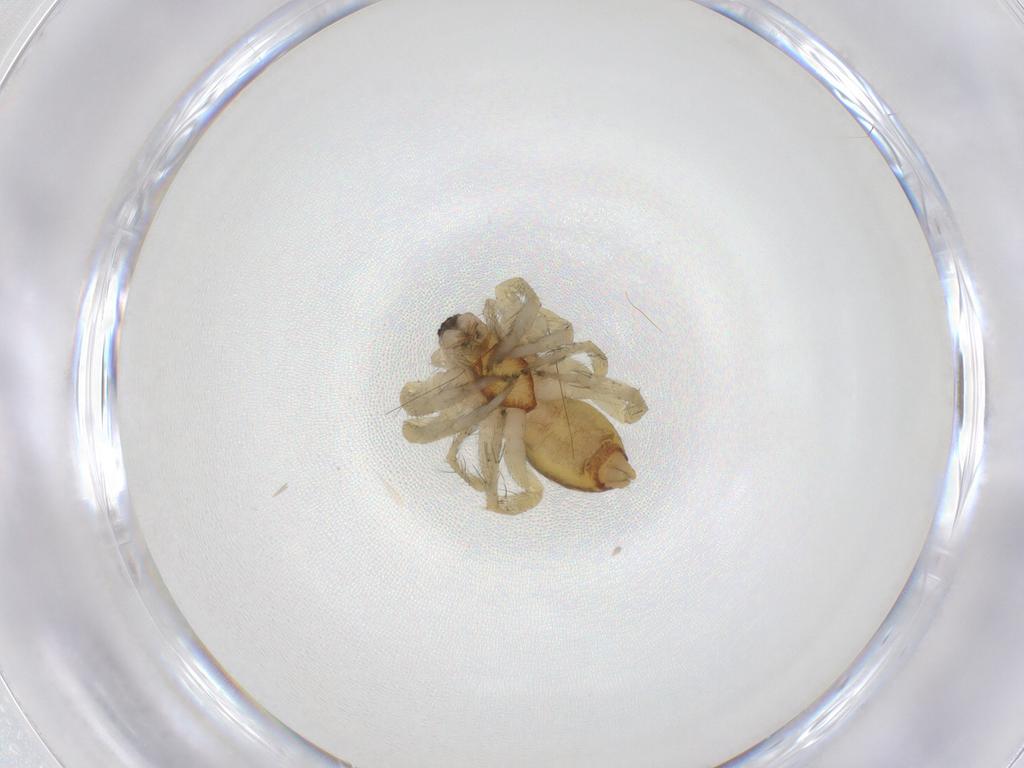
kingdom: Animalia
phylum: Arthropoda
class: Arachnida
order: Araneae
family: Anyphaenidae
